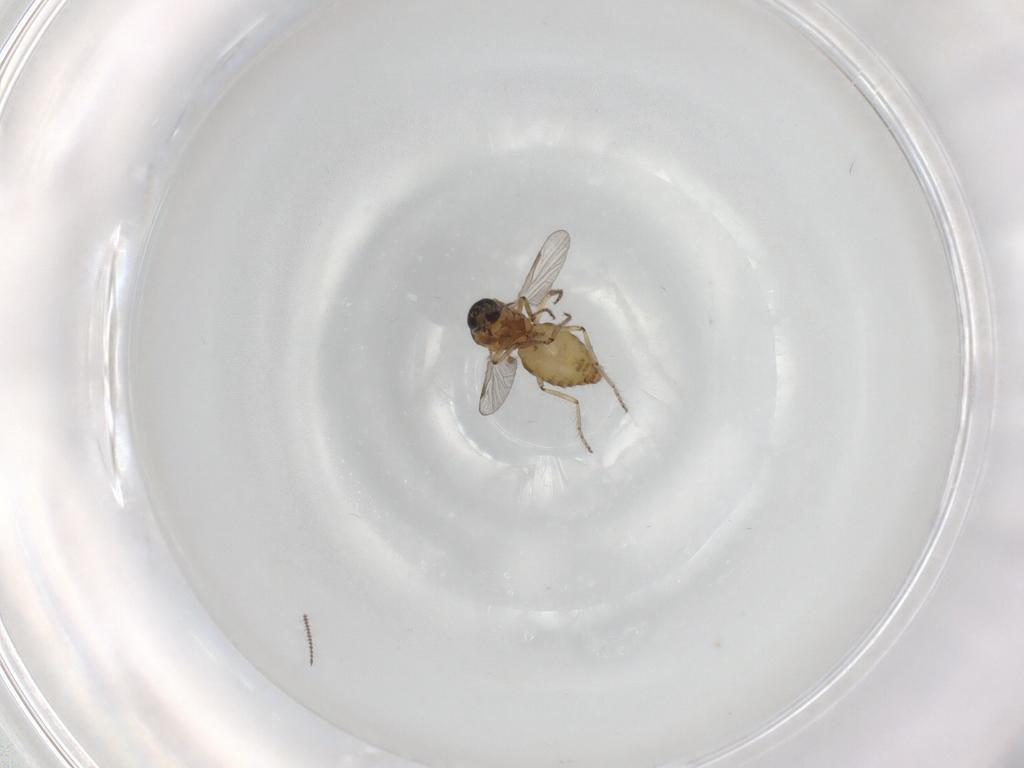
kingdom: Animalia
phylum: Arthropoda
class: Insecta
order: Diptera
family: Ceratopogonidae
